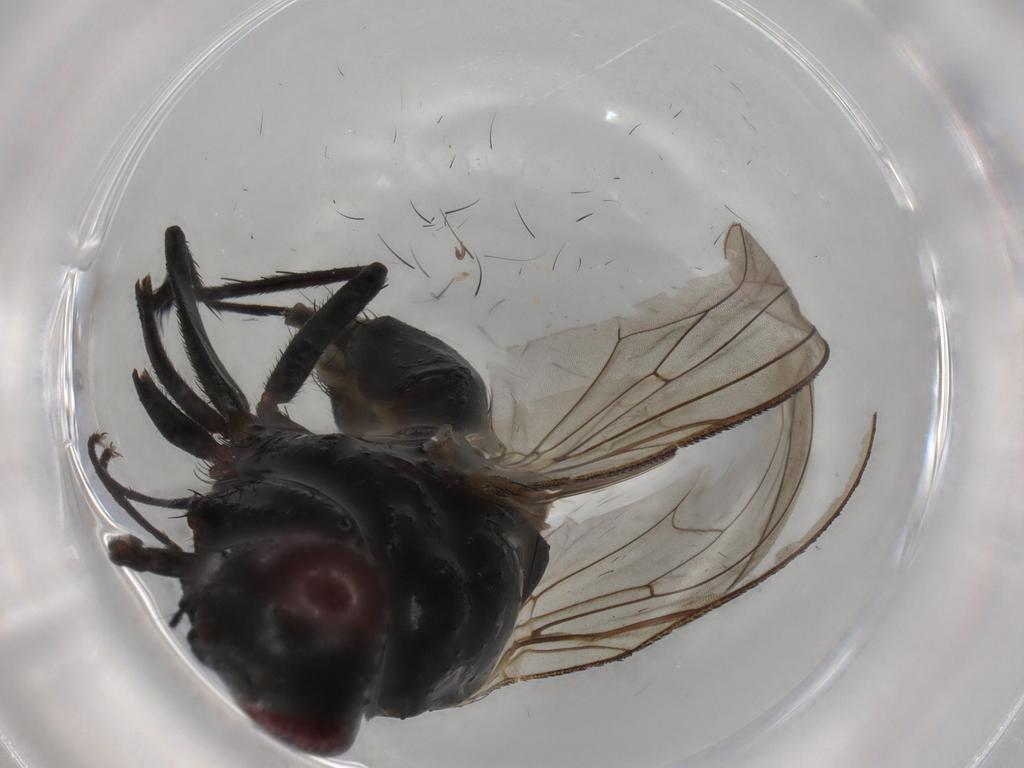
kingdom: Animalia
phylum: Arthropoda
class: Insecta
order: Diptera
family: Anthomyiidae
